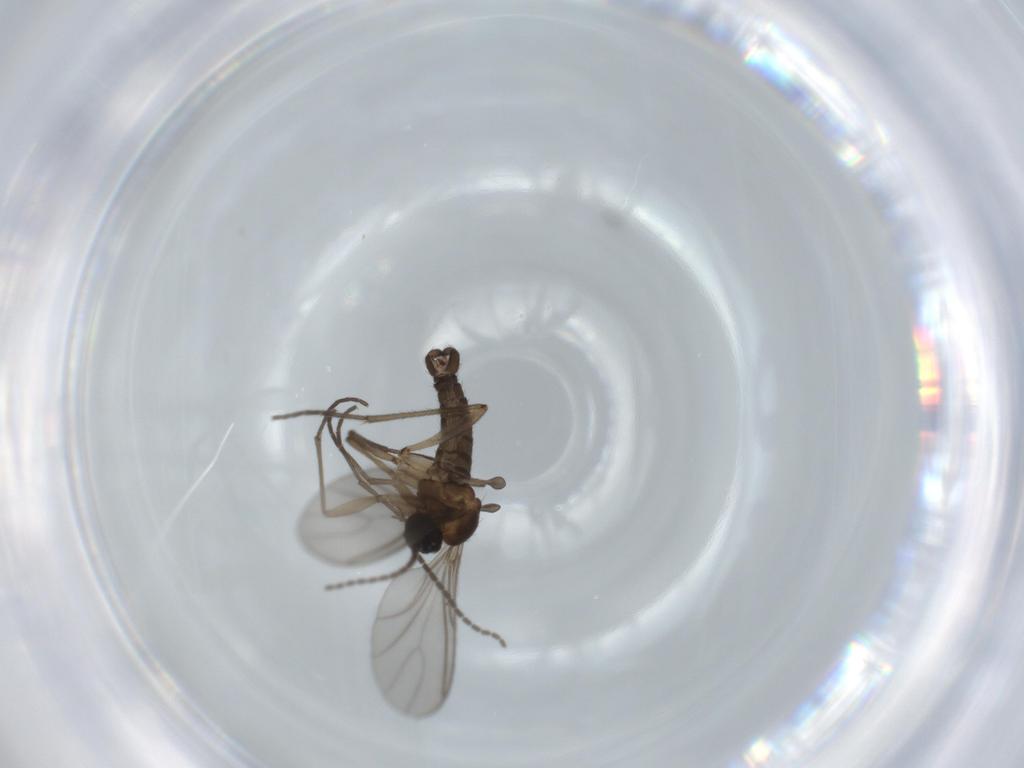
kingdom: Animalia
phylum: Arthropoda
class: Insecta
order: Diptera
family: Sciaridae
